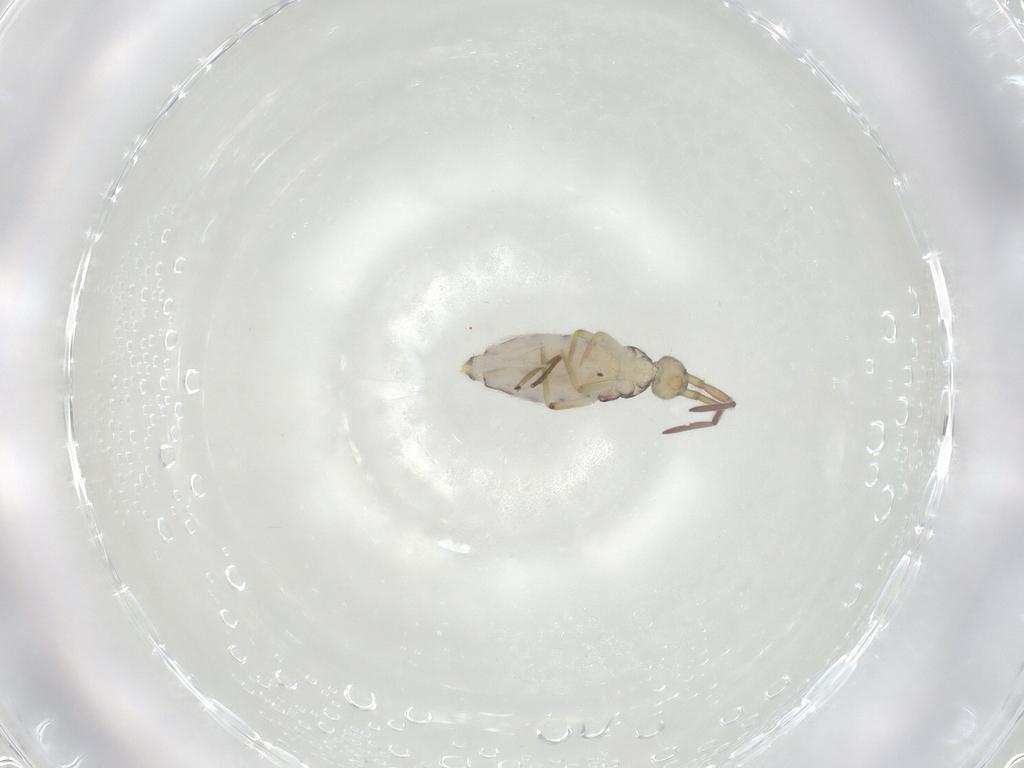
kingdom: Animalia
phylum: Arthropoda
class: Collembola
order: Entomobryomorpha
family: Entomobryidae
